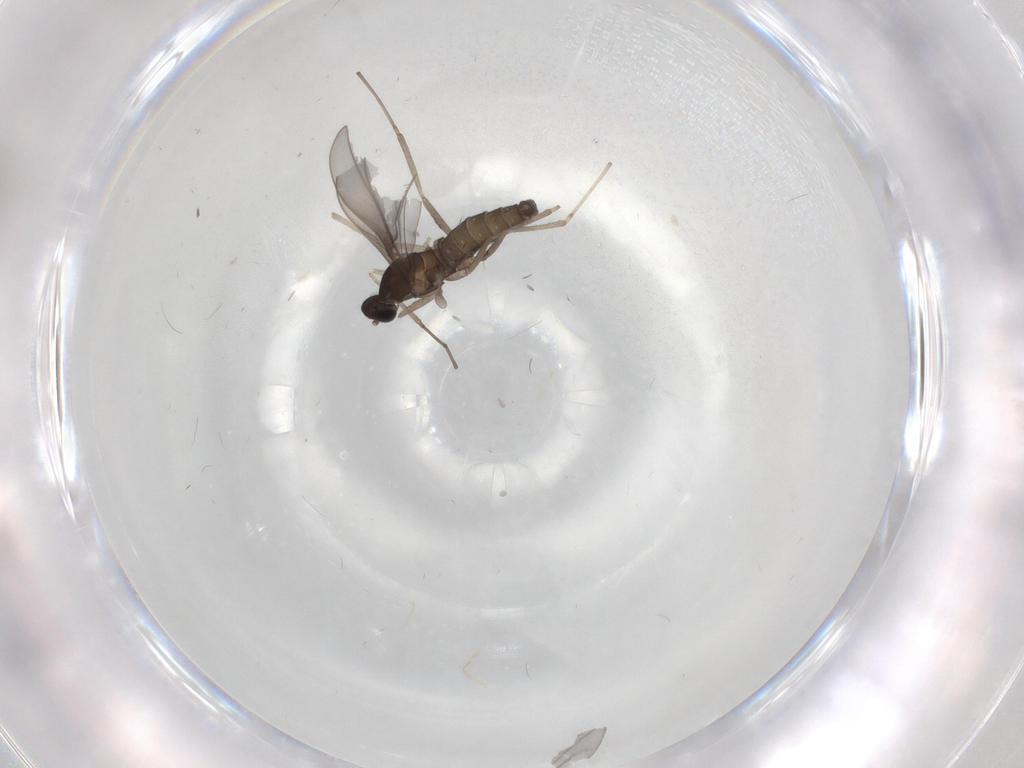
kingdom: Animalia
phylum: Arthropoda
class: Insecta
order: Diptera
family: Cecidomyiidae
